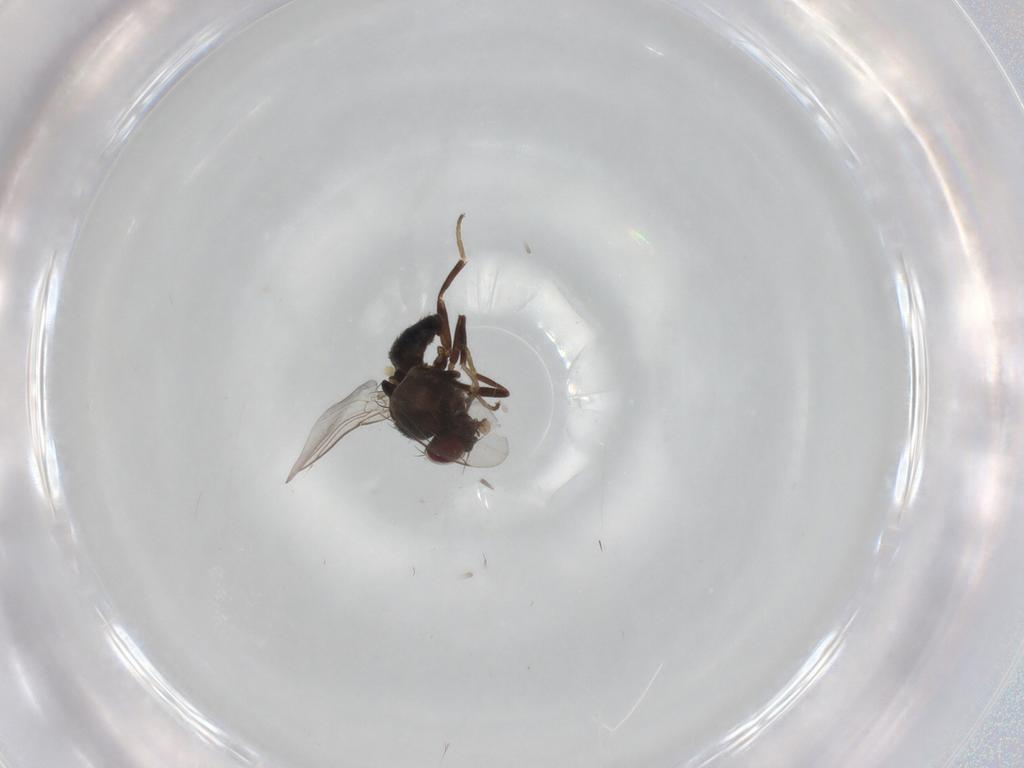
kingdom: Animalia
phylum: Arthropoda
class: Insecta
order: Diptera
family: Agromyzidae
